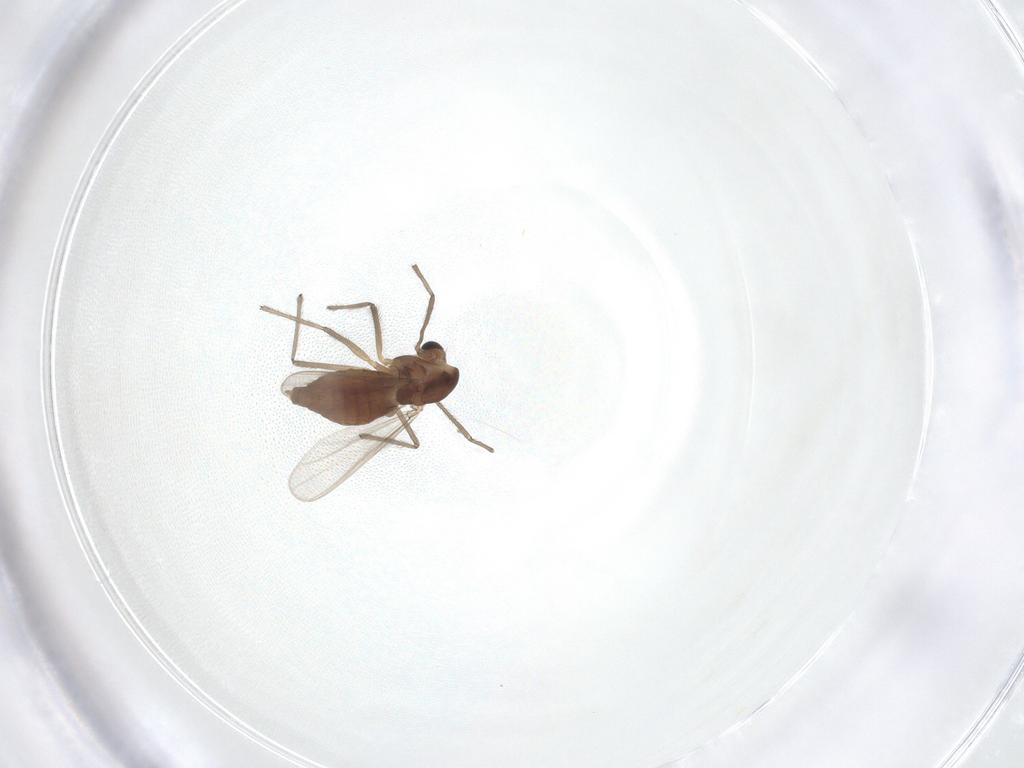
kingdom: Animalia
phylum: Arthropoda
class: Insecta
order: Diptera
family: Chironomidae
